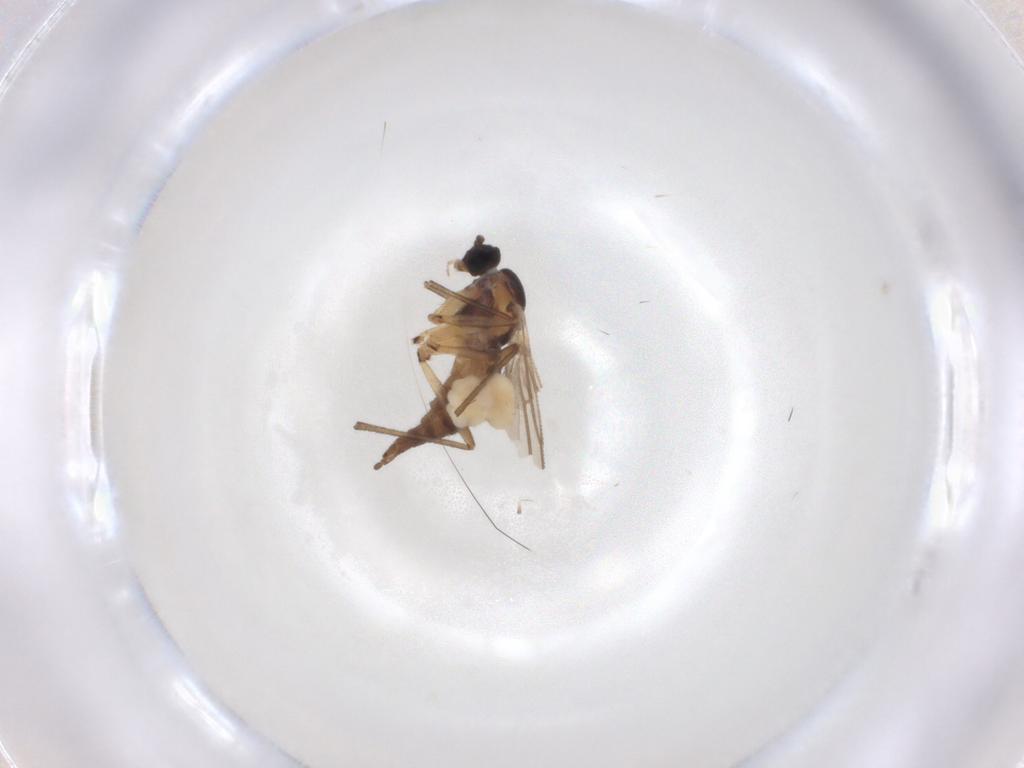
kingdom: Animalia
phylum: Arthropoda
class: Insecta
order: Diptera
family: Sciaridae
